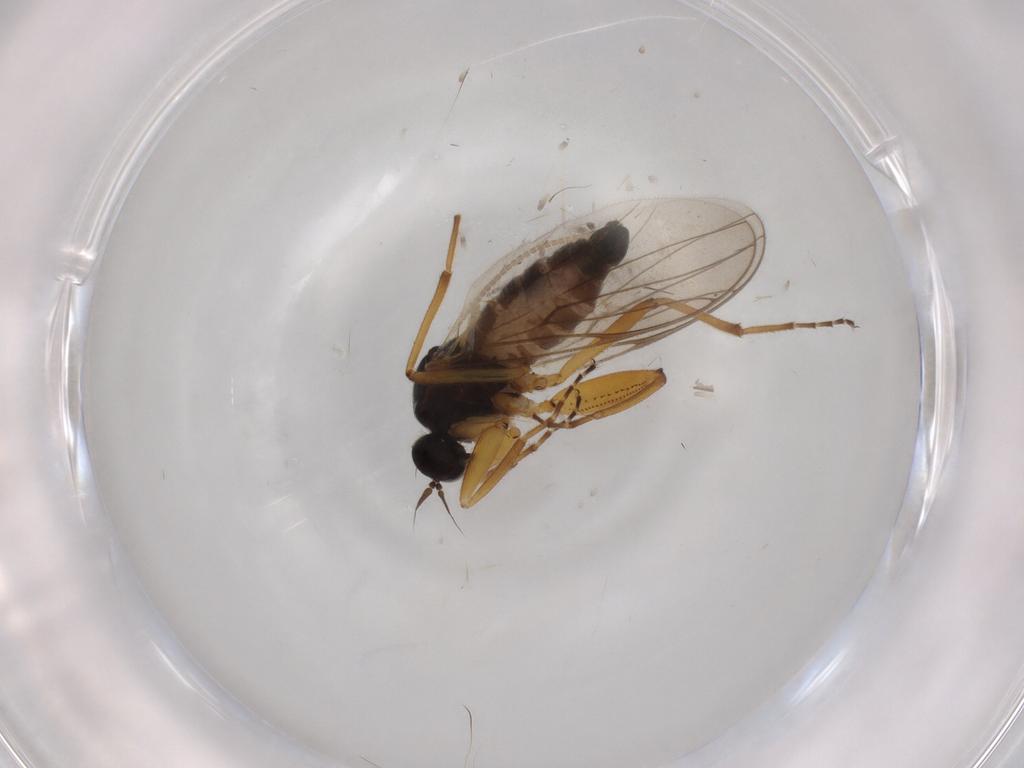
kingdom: Animalia
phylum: Arthropoda
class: Insecta
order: Diptera
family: Hybotidae
